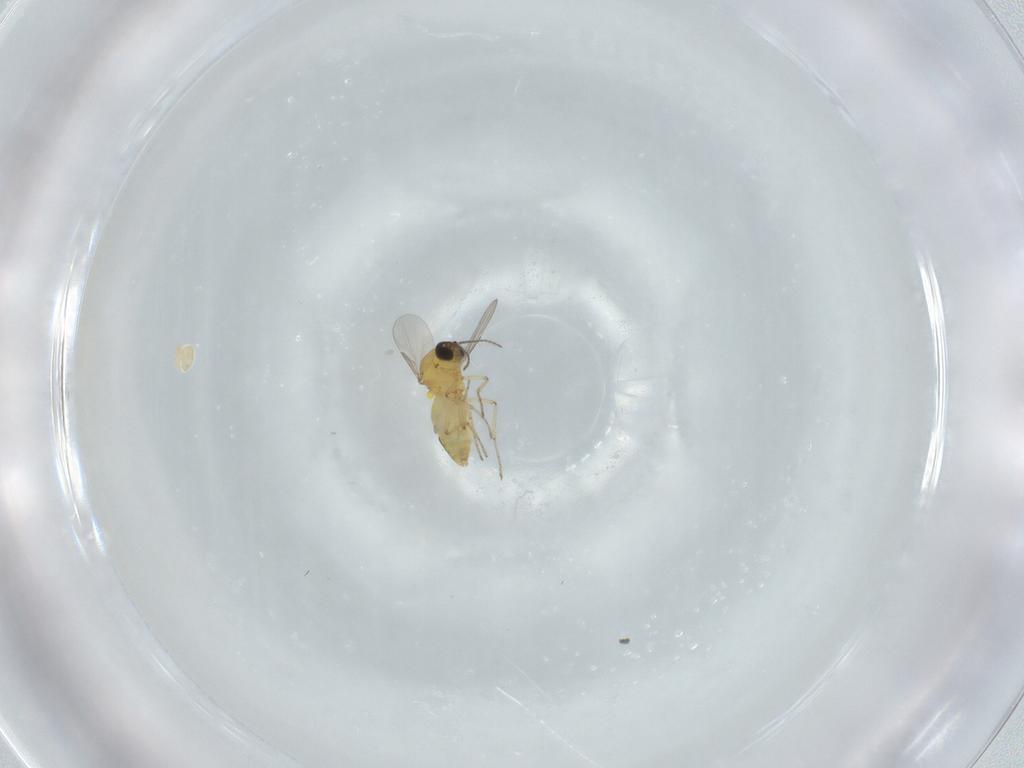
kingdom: Animalia
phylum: Arthropoda
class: Insecta
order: Diptera
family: Ceratopogonidae
